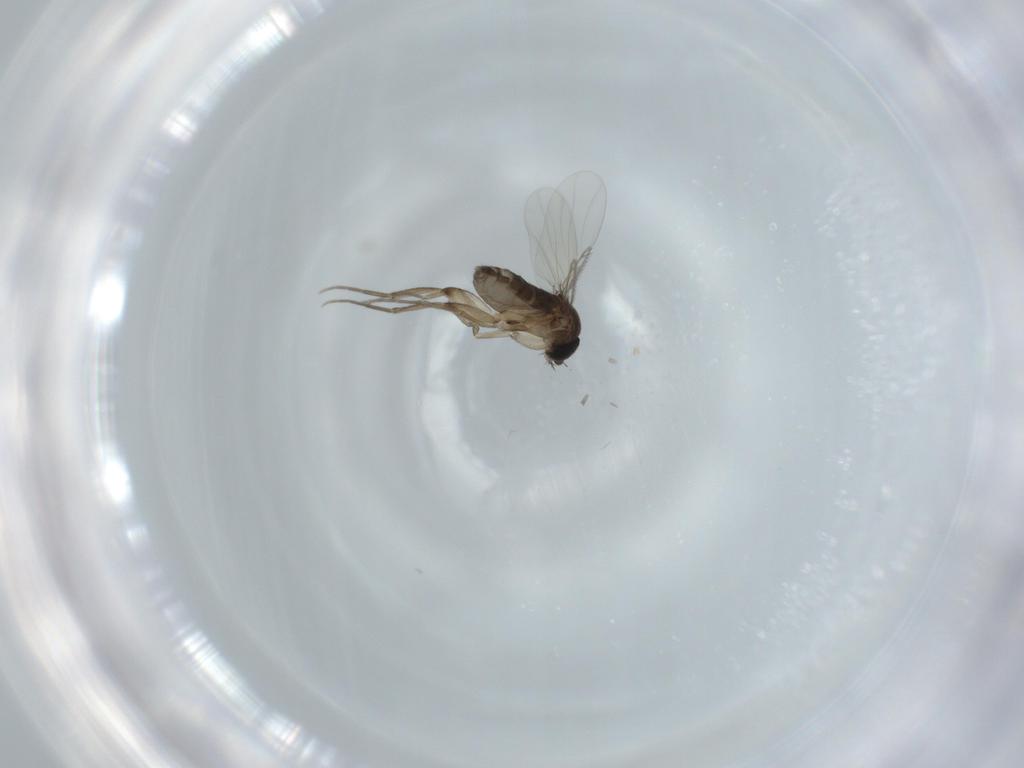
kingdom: Animalia
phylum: Arthropoda
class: Insecta
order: Diptera
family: Phoridae
